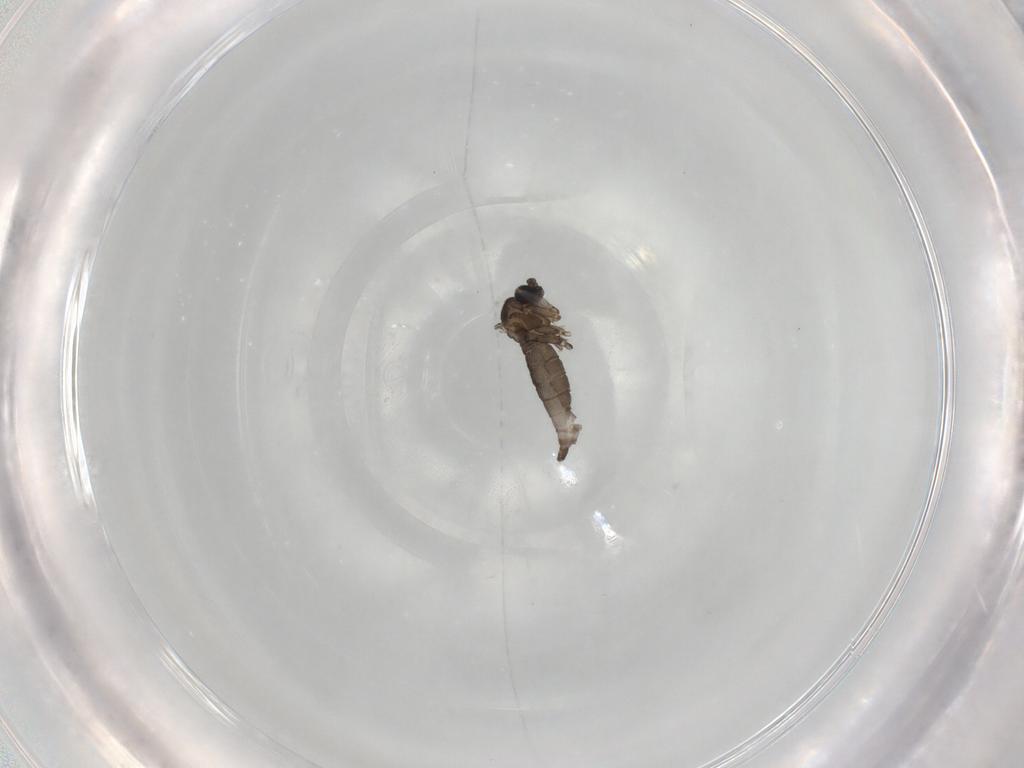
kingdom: Animalia
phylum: Arthropoda
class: Insecta
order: Diptera
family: Sciaridae
